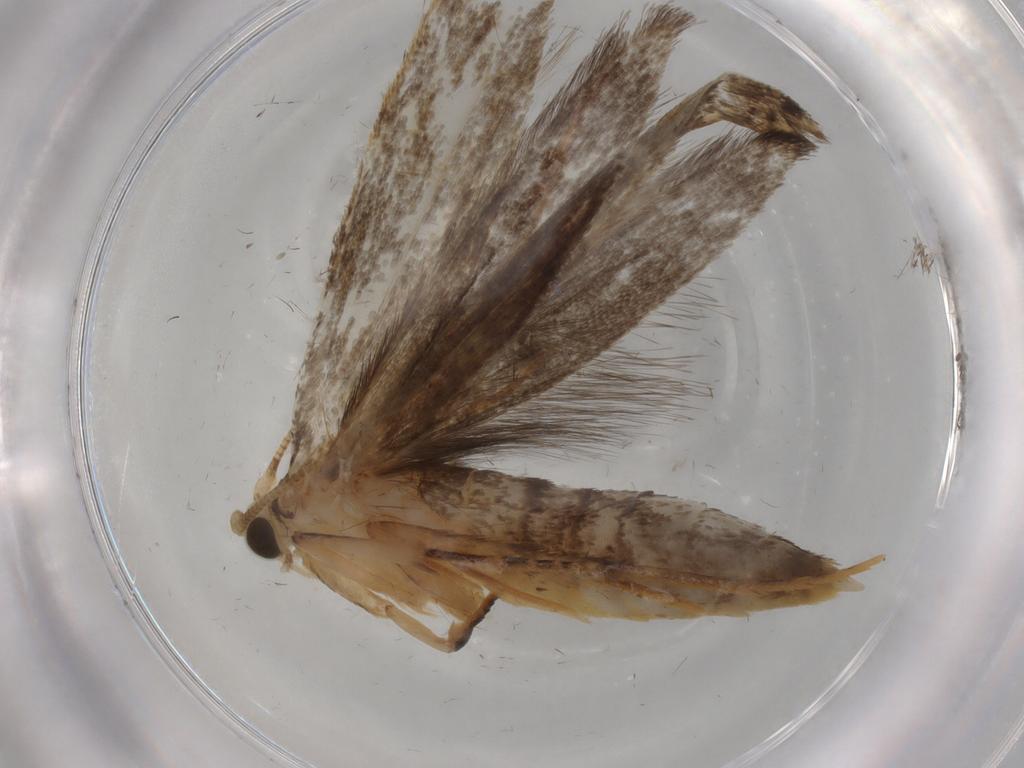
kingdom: Animalia
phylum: Arthropoda
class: Insecta
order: Lepidoptera
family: Nepticulidae
